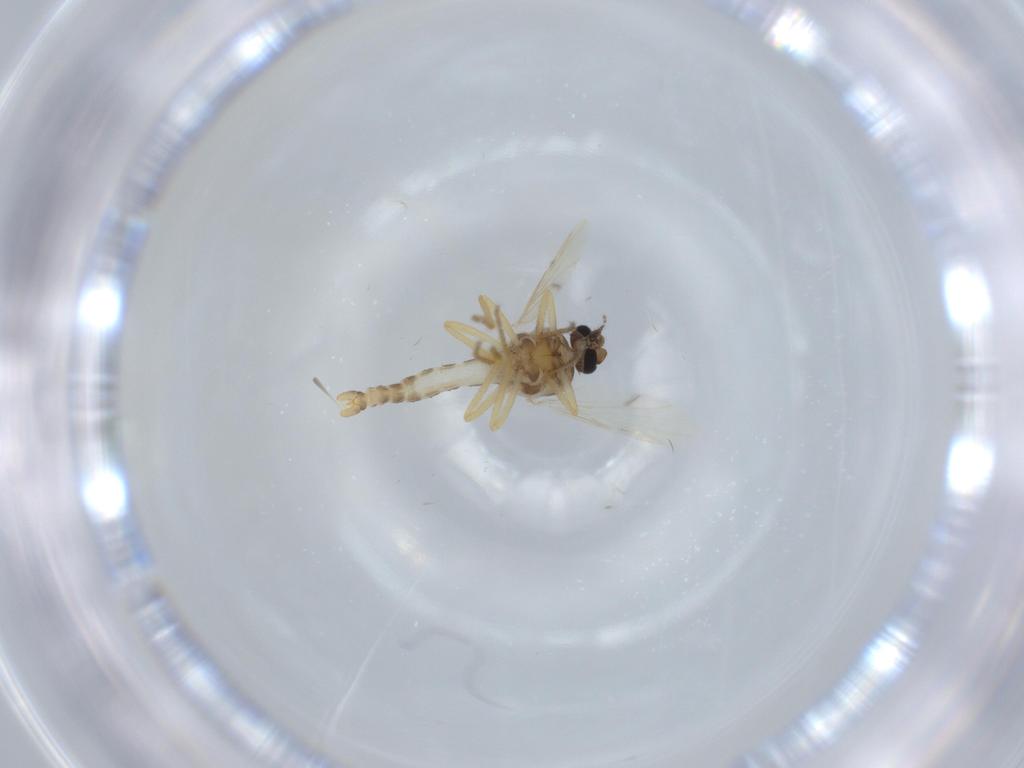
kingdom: Animalia
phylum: Arthropoda
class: Insecta
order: Diptera
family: Ceratopogonidae
